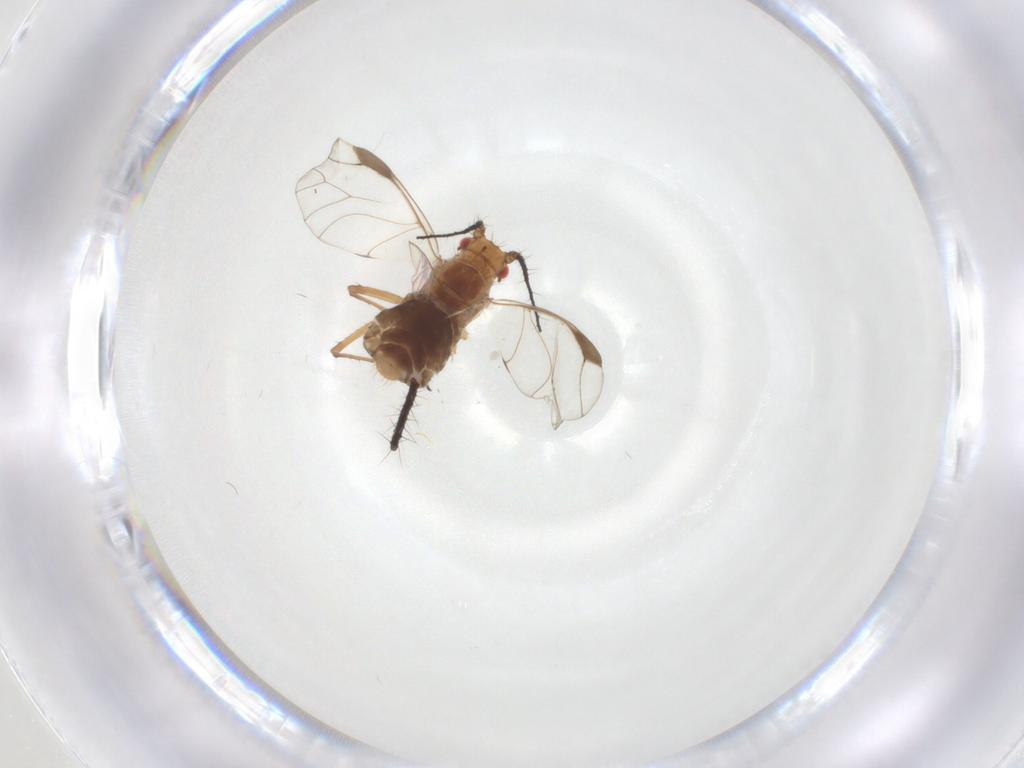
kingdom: Animalia
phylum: Arthropoda
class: Insecta
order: Hemiptera
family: Aphididae
